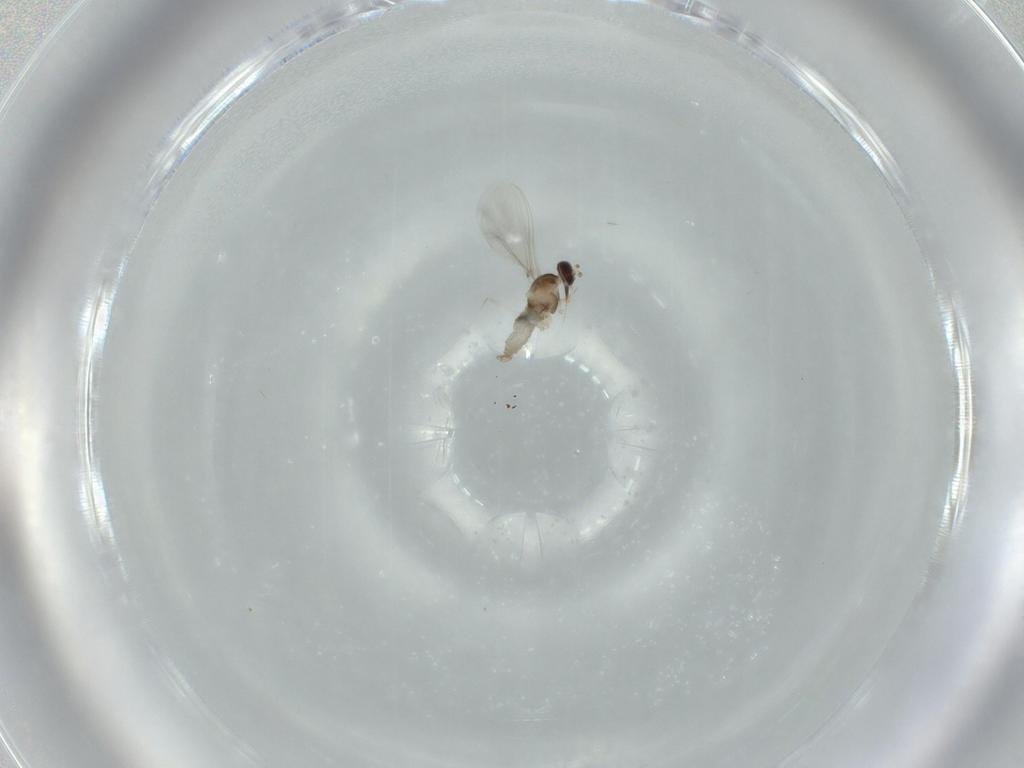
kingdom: Animalia
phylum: Arthropoda
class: Insecta
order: Diptera
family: Cecidomyiidae
